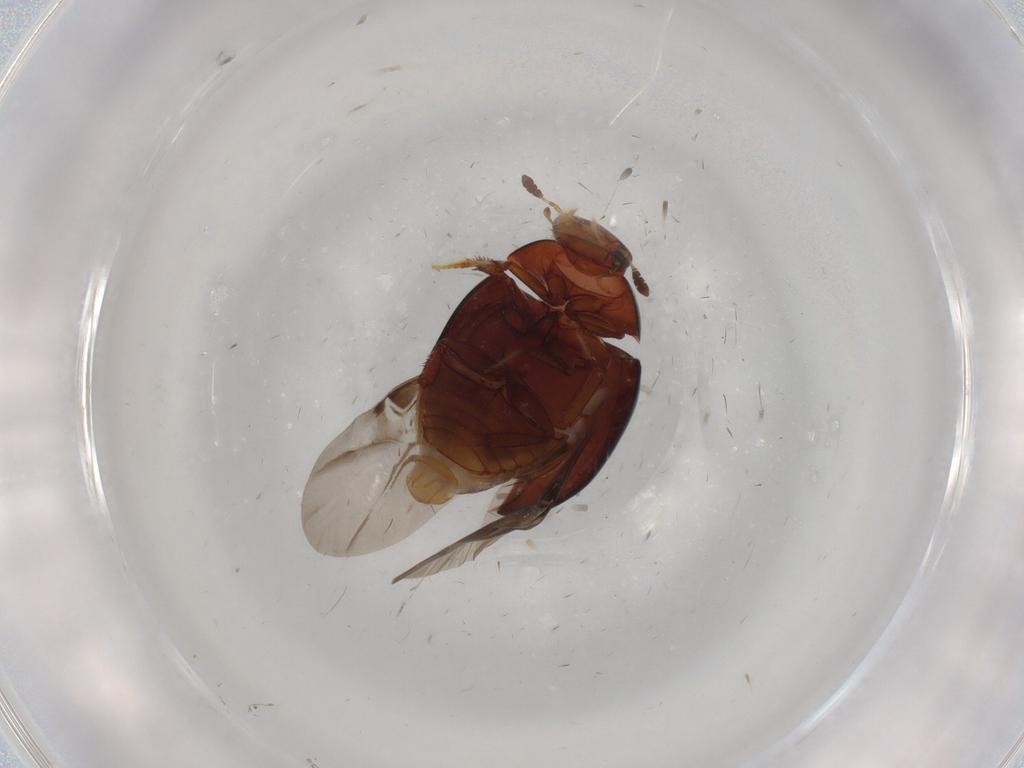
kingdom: Animalia
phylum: Arthropoda
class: Insecta
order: Coleoptera
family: Hydrophilidae
